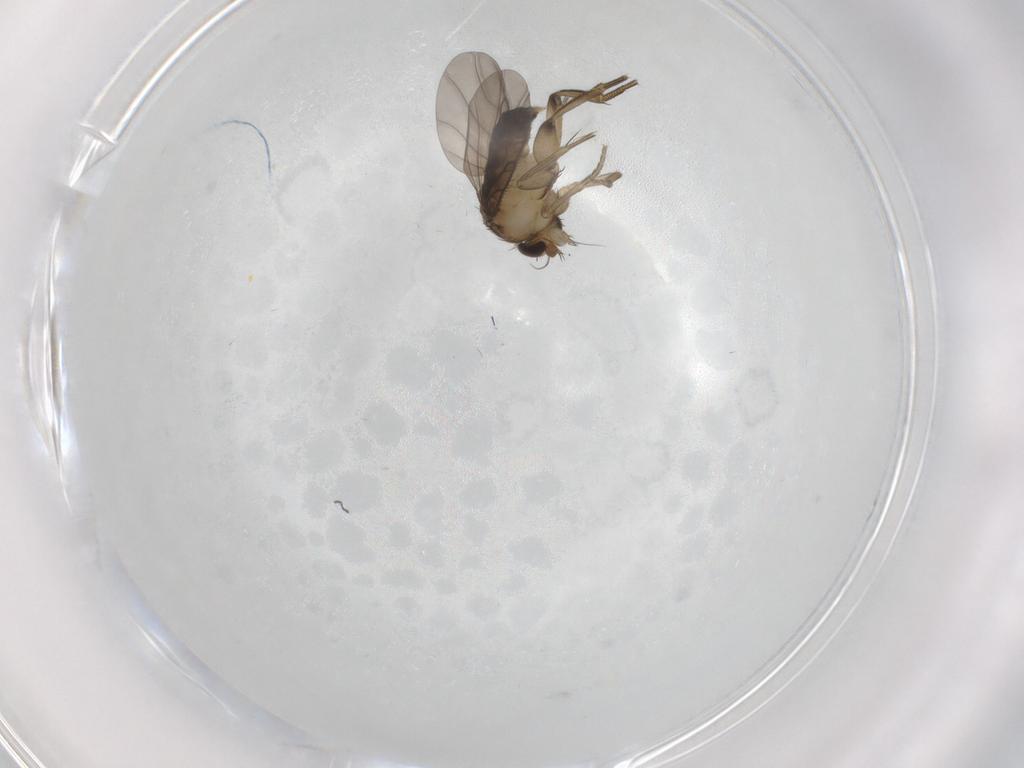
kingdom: Animalia
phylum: Arthropoda
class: Insecta
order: Diptera
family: Phoridae
